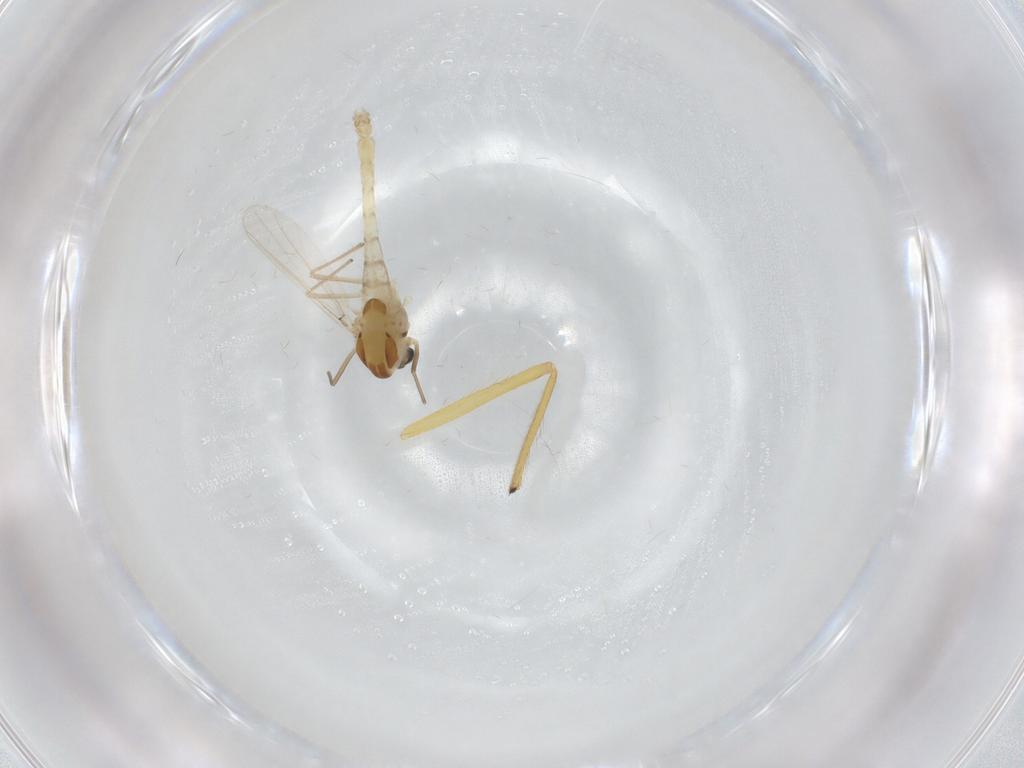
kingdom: Animalia
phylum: Arthropoda
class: Insecta
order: Diptera
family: Chironomidae
